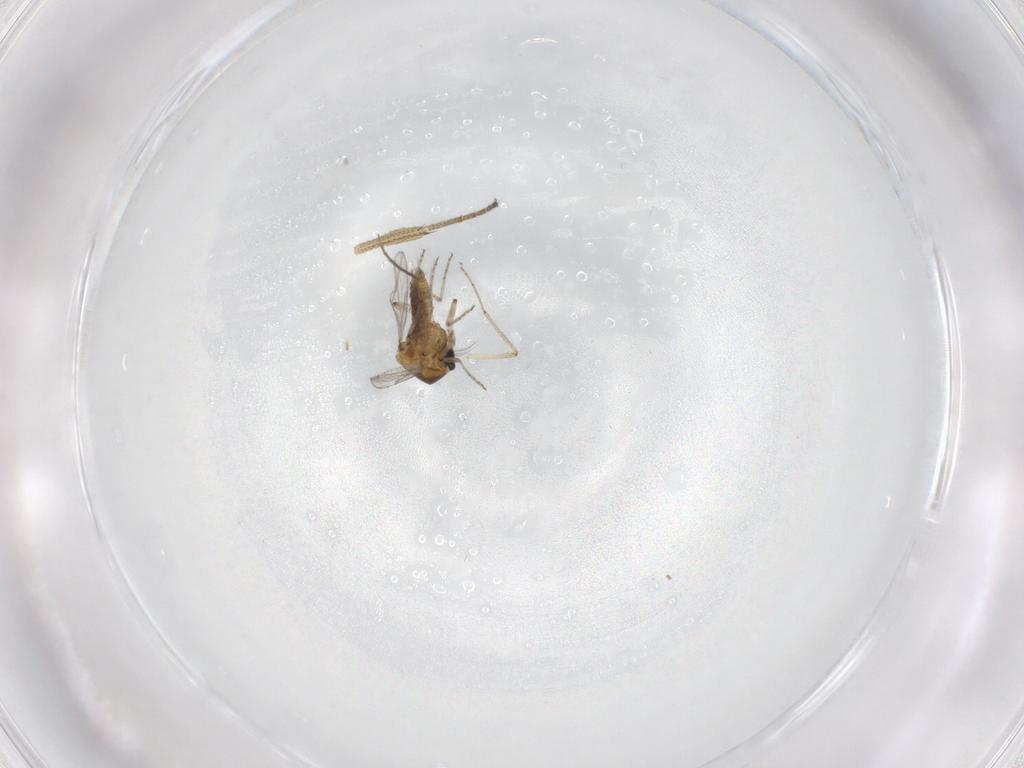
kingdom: Animalia
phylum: Arthropoda
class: Insecta
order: Diptera
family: Ceratopogonidae
